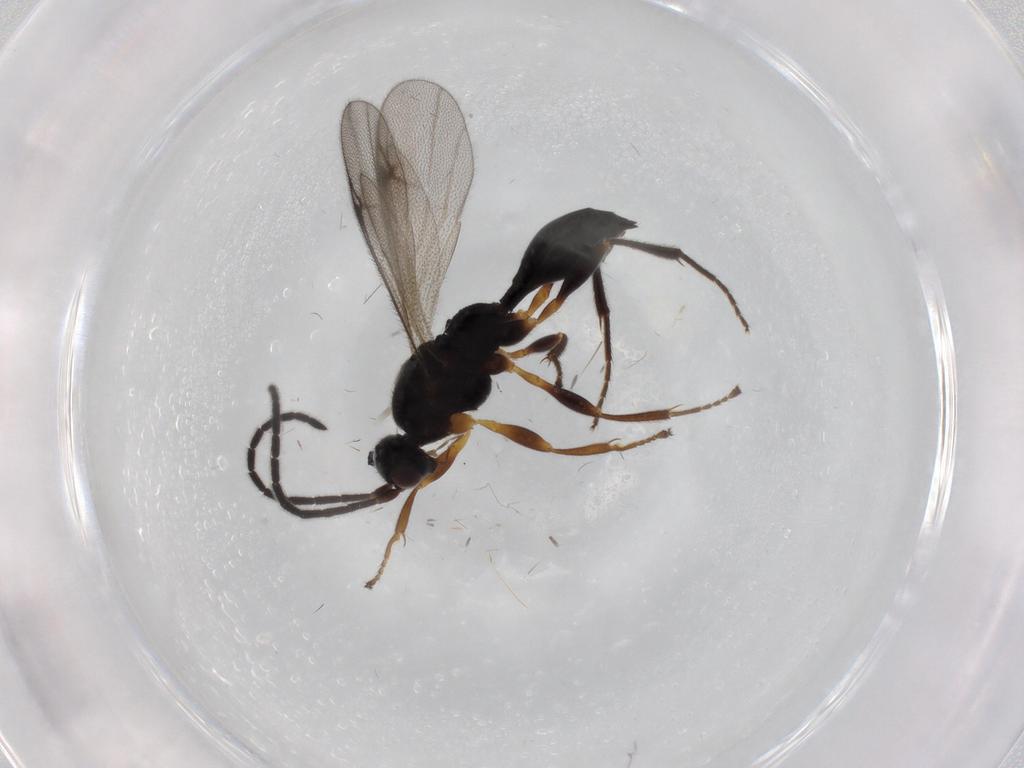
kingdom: Animalia
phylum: Arthropoda
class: Insecta
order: Hymenoptera
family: Proctotrupidae
